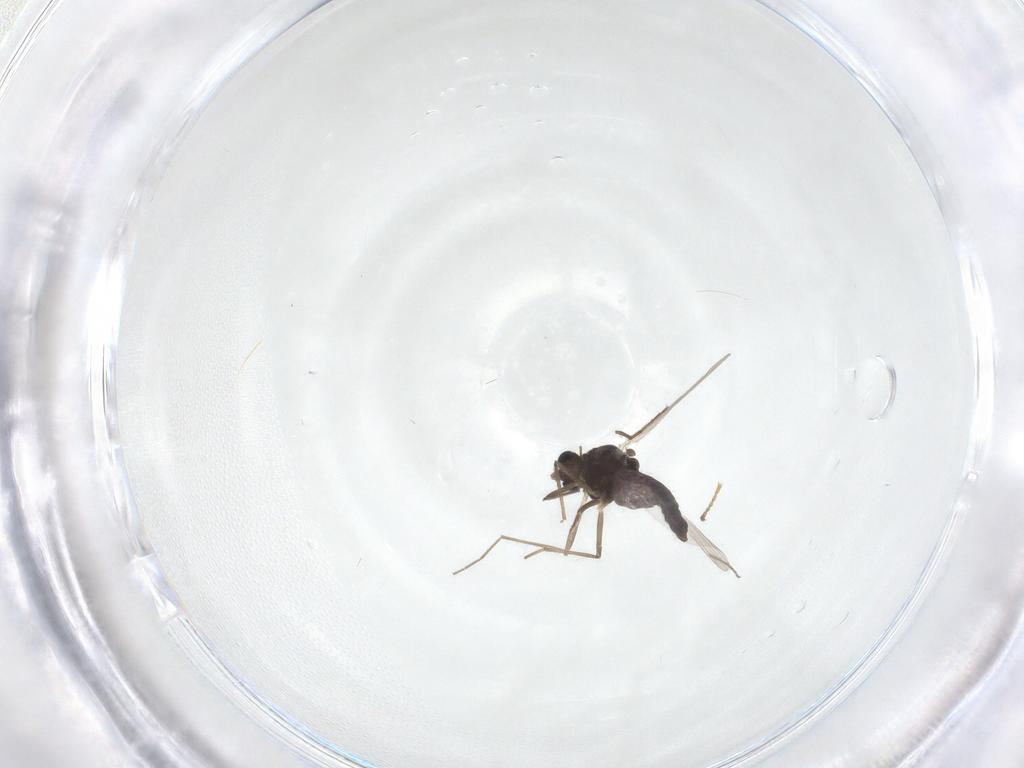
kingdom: Animalia
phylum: Arthropoda
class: Insecta
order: Diptera
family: Chironomidae
